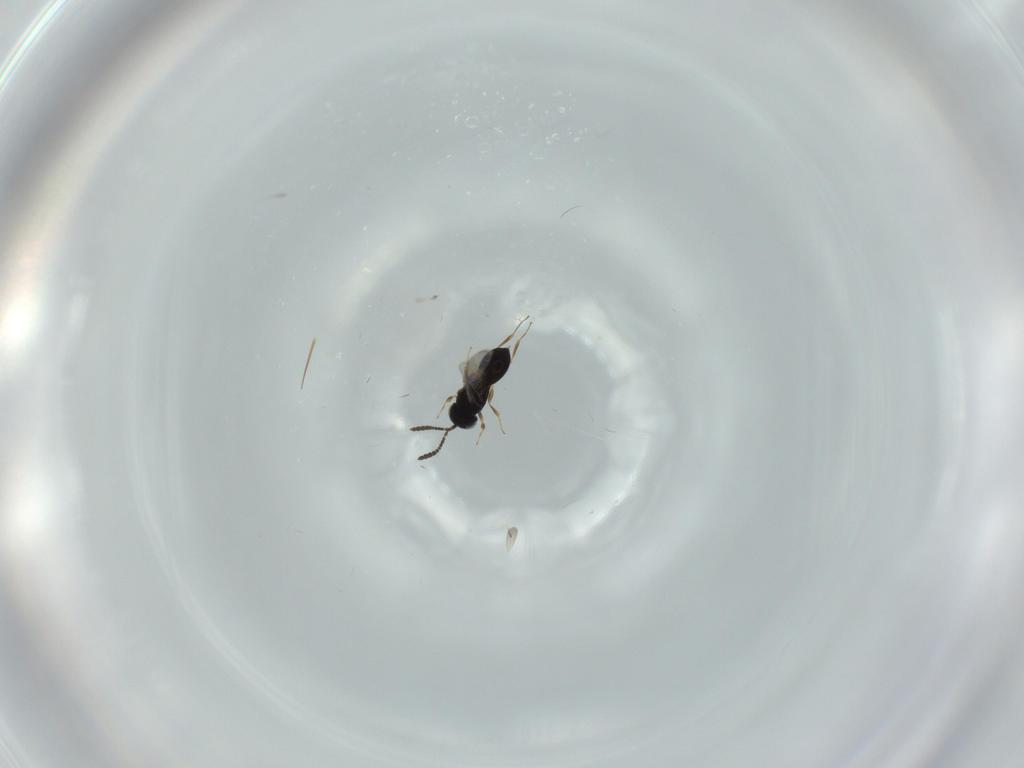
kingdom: Animalia
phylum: Arthropoda
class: Insecta
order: Hymenoptera
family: Scelionidae
